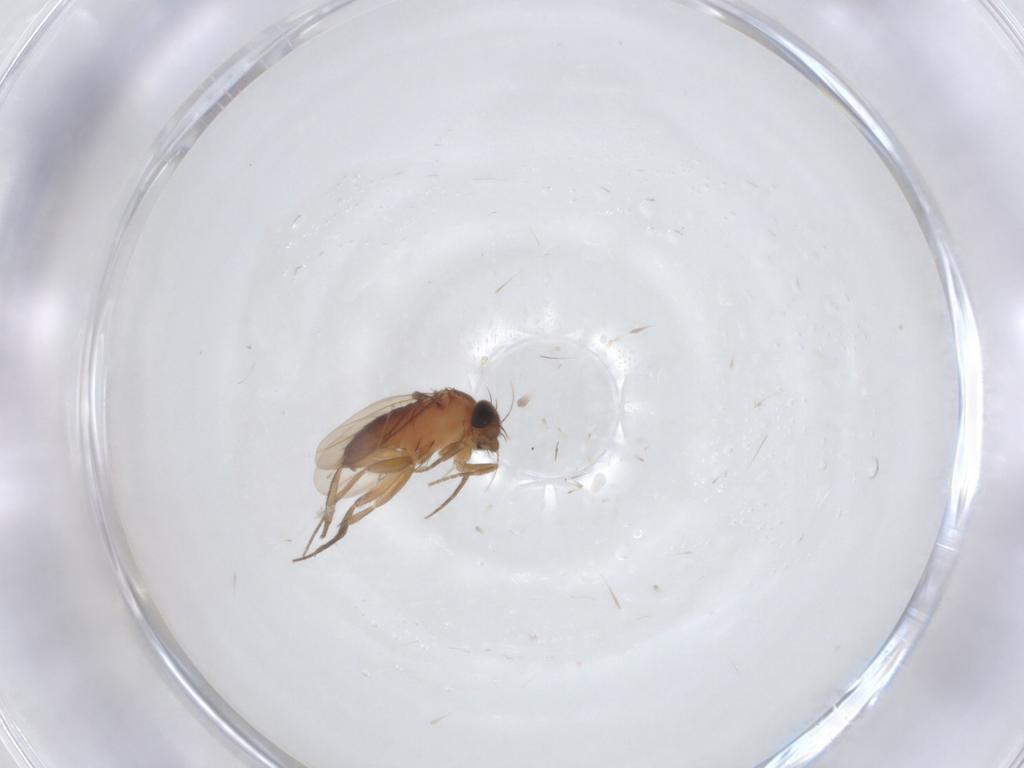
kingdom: Animalia
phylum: Arthropoda
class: Insecta
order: Diptera
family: Ceratopogonidae
